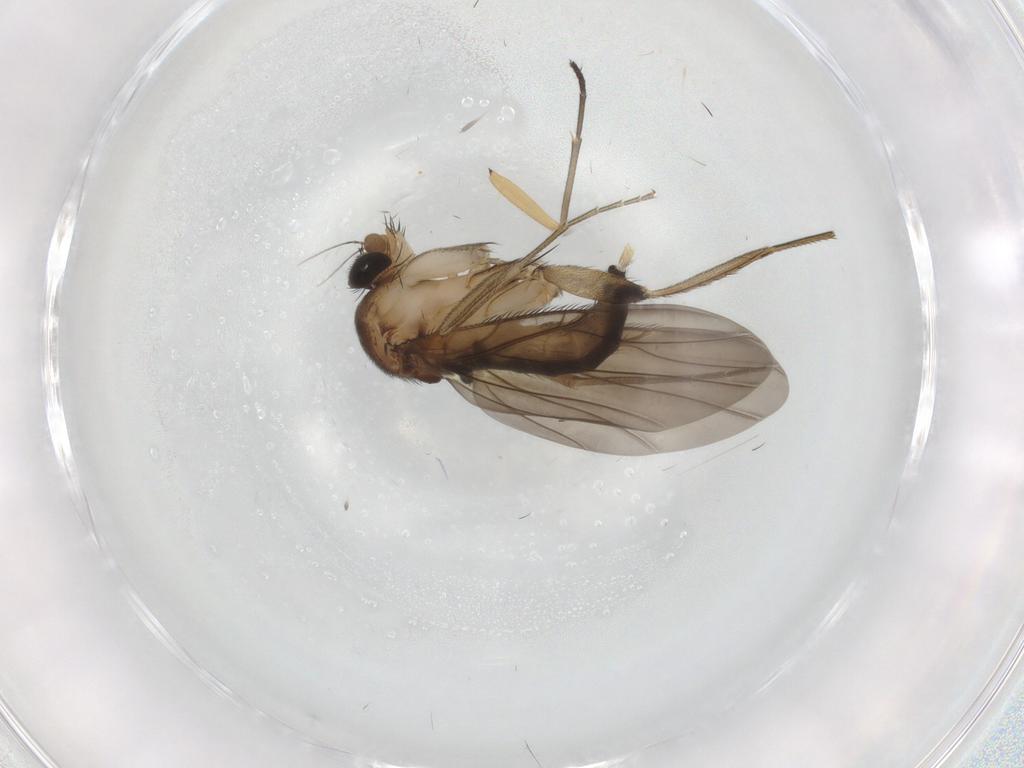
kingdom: Animalia
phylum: Arthropoda
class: Insecta
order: Diptera
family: Phoridae
